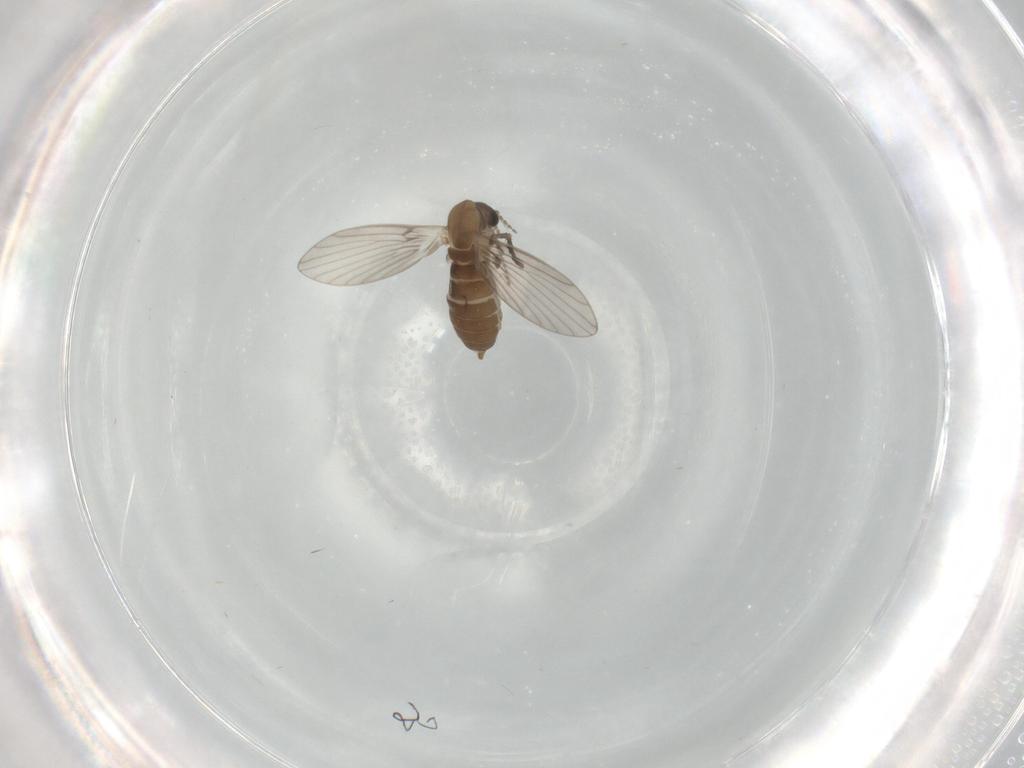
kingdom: Animalia
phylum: Arthropoda
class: Insecta
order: Diptera
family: Psychodidae
